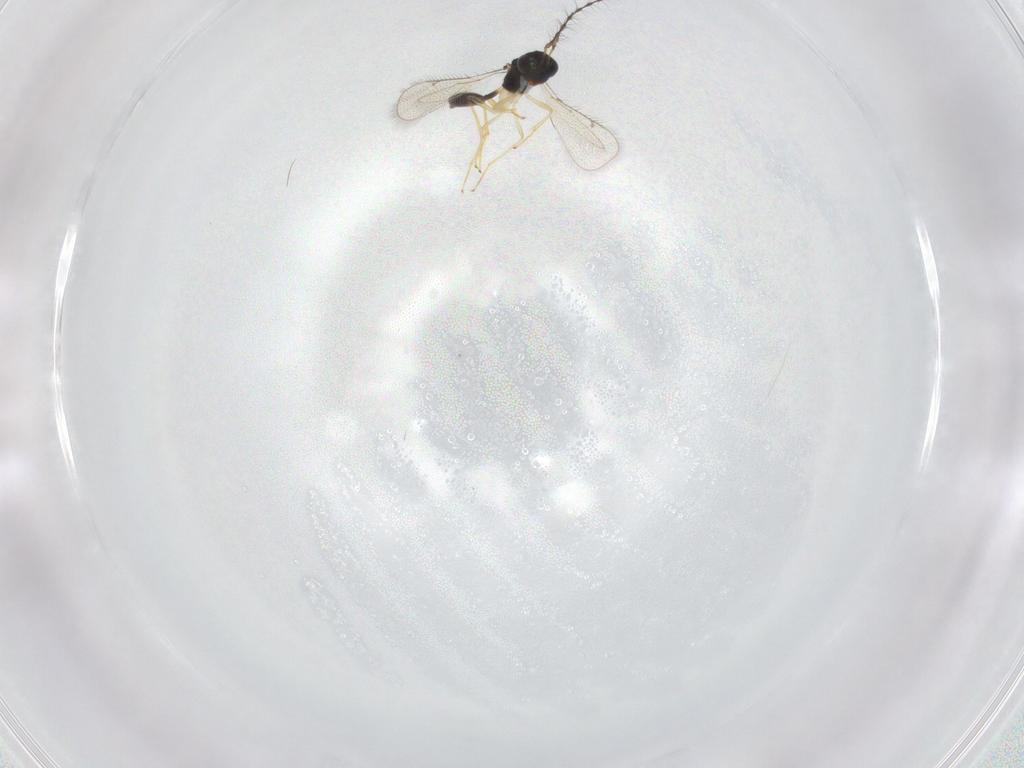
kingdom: Animalia
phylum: Arthropoda
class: Insecta
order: Hymenoptera
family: Pteromalidae
